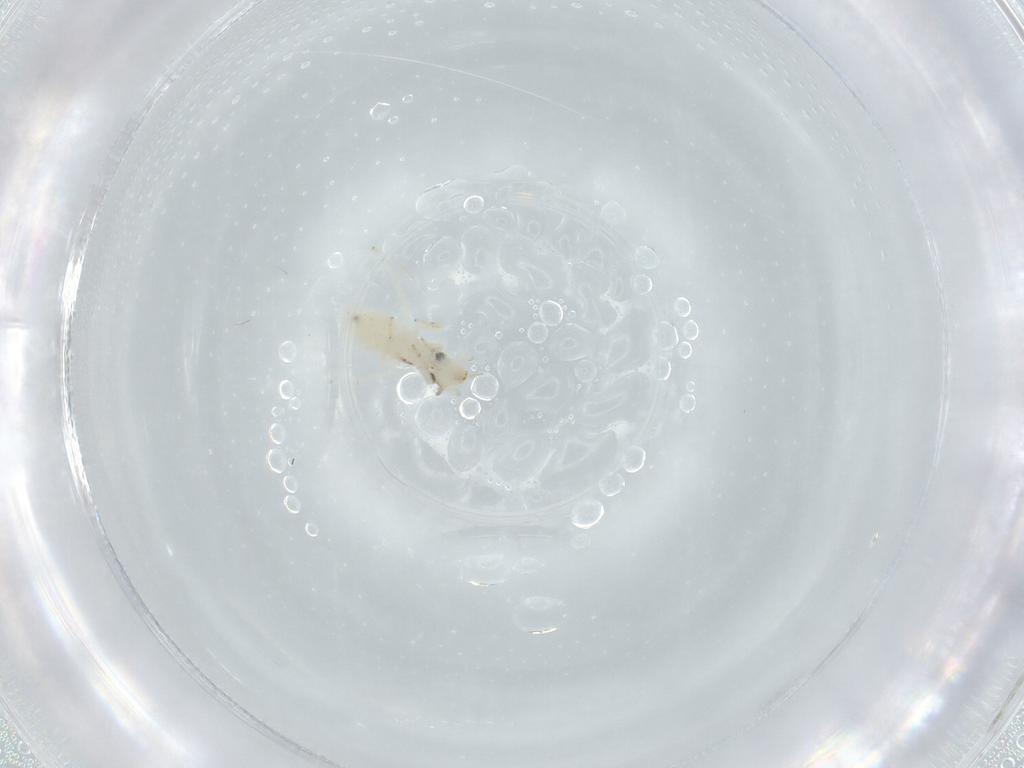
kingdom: Animalia
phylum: Arthropoda
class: Insecta
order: Psocodea
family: Lepidopsocidae
